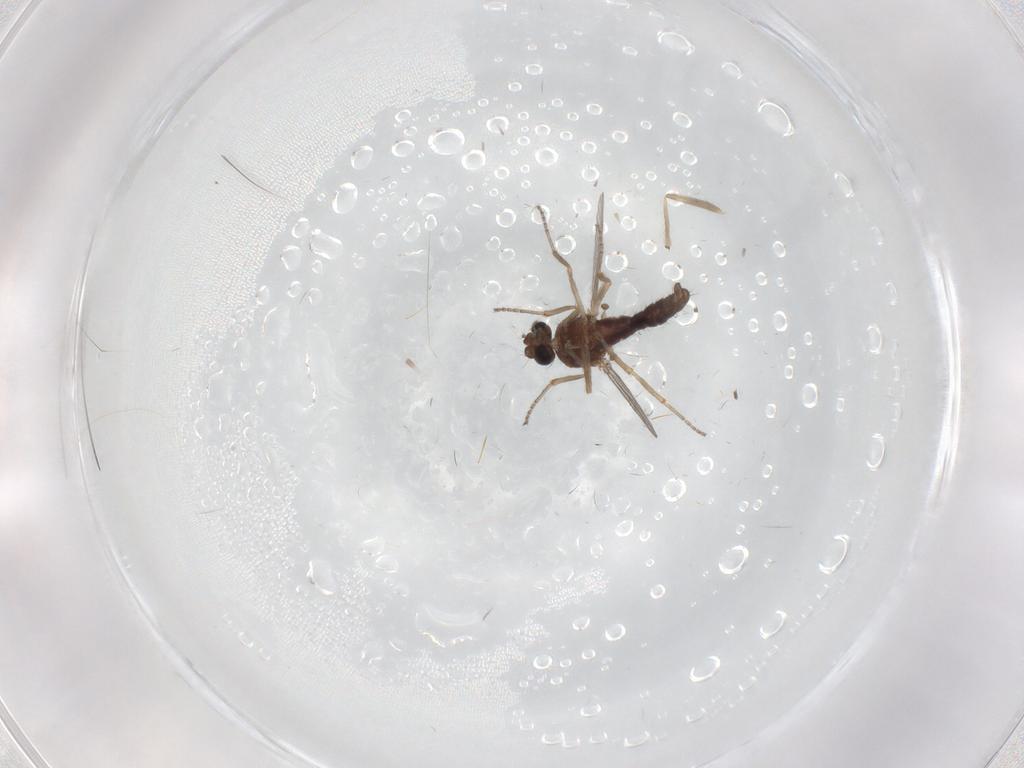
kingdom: Animalia
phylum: Arthropoda
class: Insecta
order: Diptera
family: Ceratopogonidae
